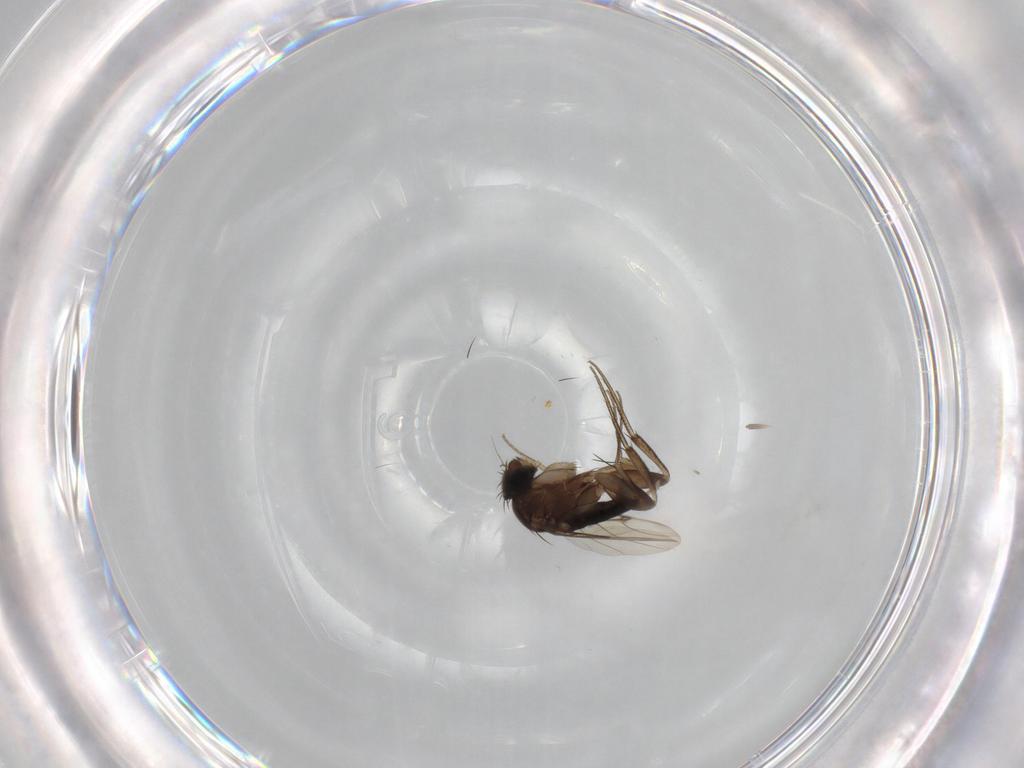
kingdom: Animalia
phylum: Arthropoda
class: Insecta
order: Diptera
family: Phoridae
